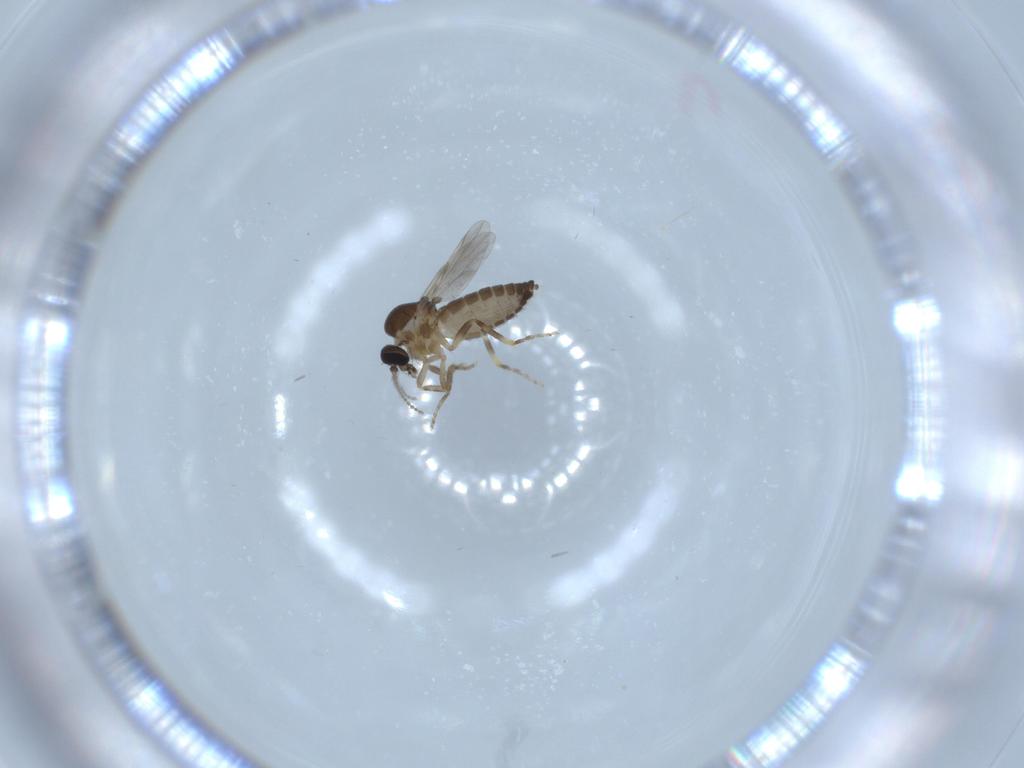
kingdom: Animalia
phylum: Arthropoda
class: Insecta
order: Diptera
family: Ceratopogonidae
